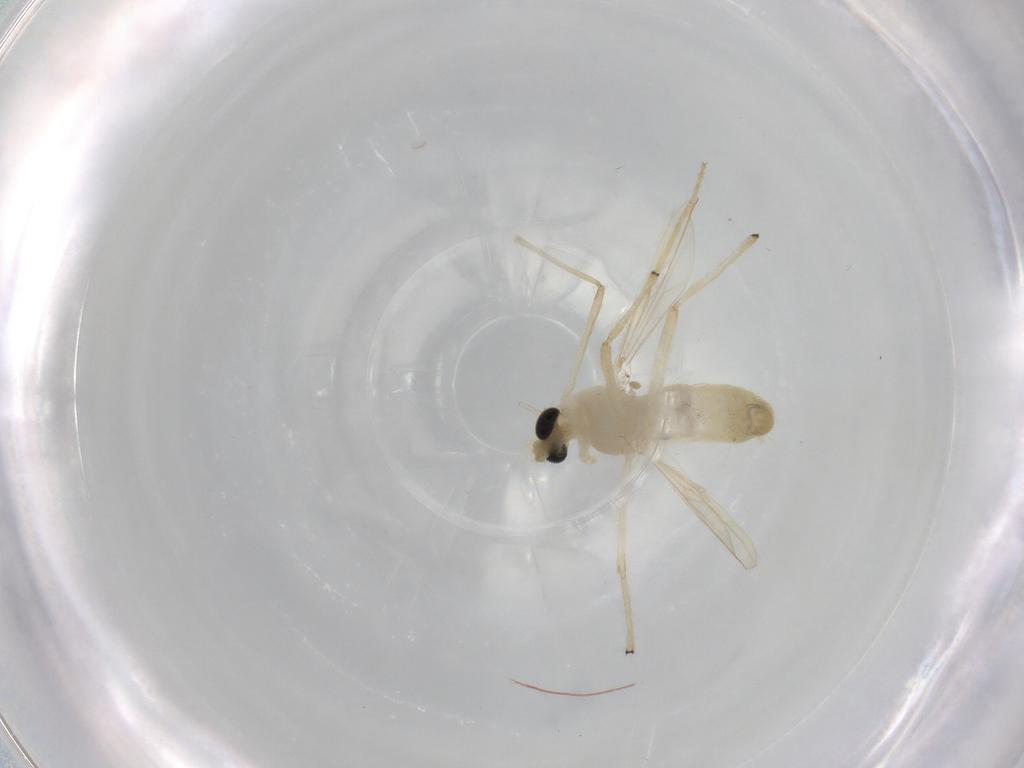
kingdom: Animalia
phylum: Arthropoda
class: Insecta
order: Diptera
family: Chironomidae
